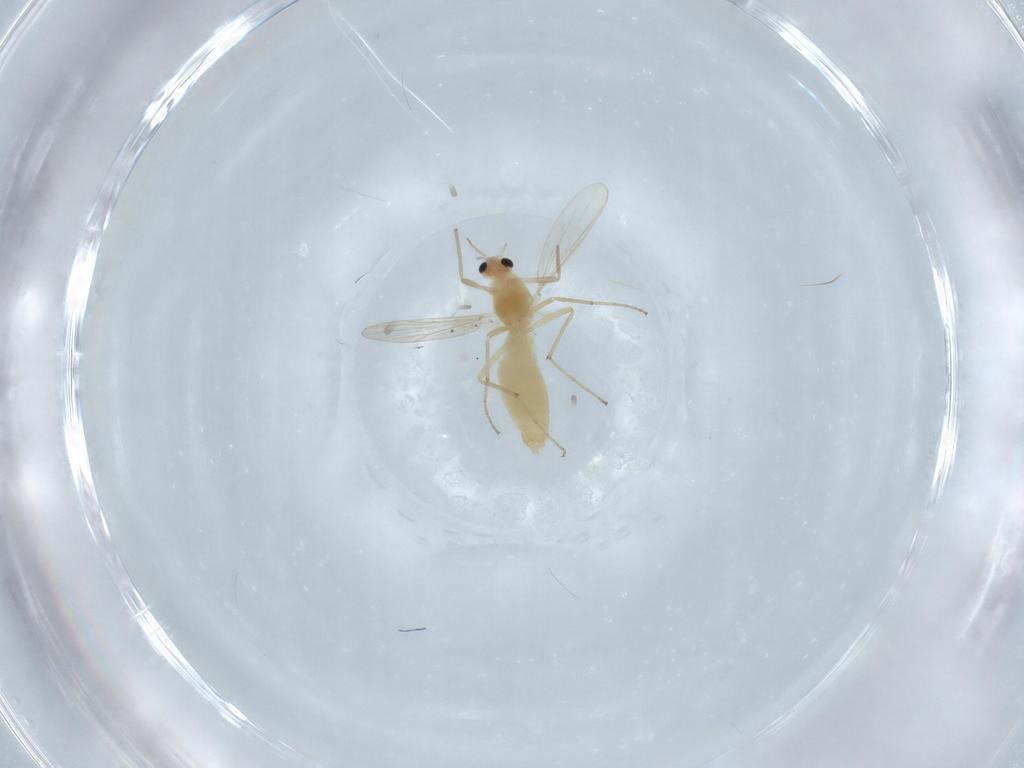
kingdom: Animalia
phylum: Arthropoda
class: Insecta
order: Diptera
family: Chironomidae
